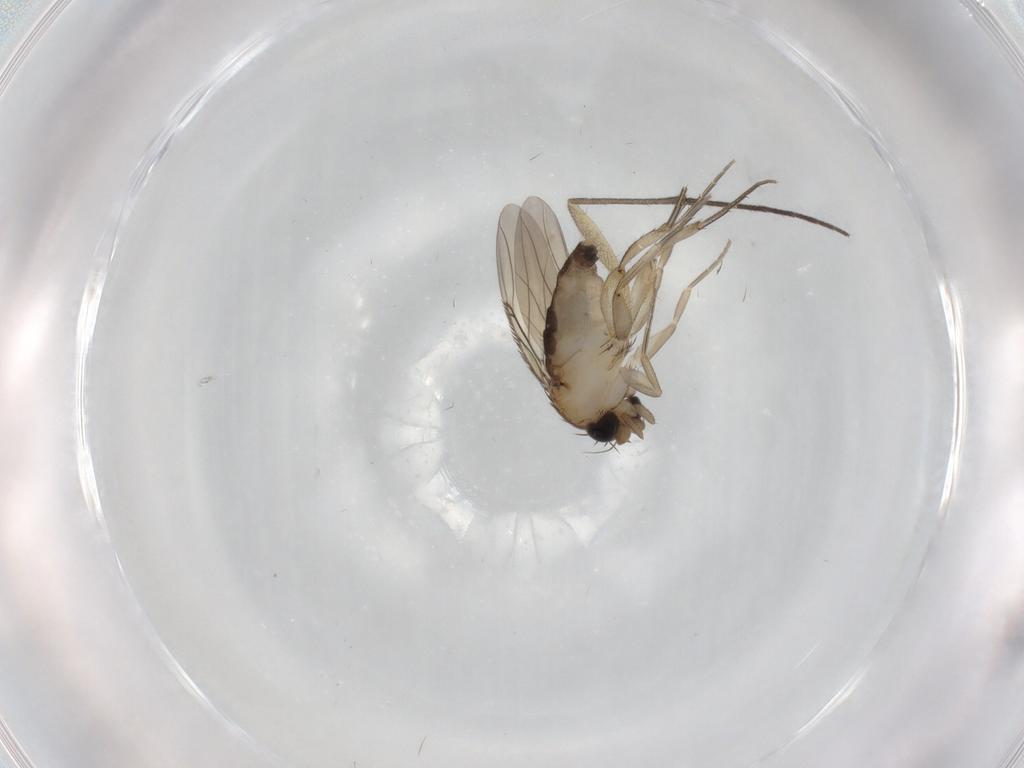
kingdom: Animalia
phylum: Arthropoda
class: Insecta
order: Diptera
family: Phoridae
